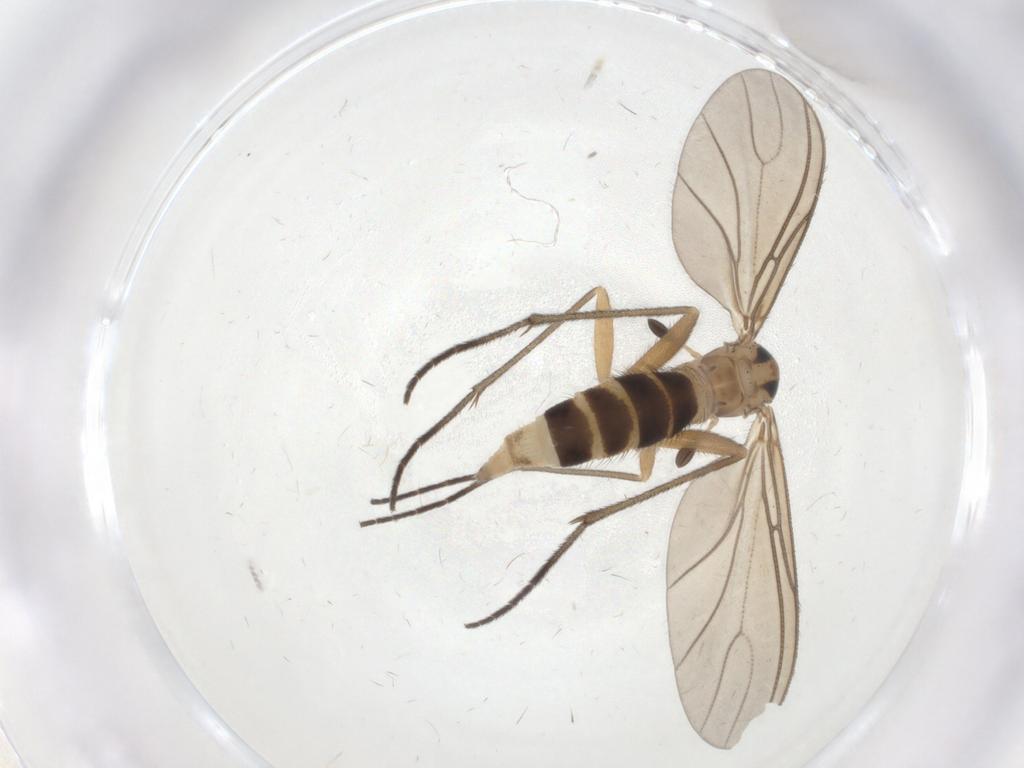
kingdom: Animalia
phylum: Arthropoda
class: Insecta
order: Diptera
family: Sciaridae
